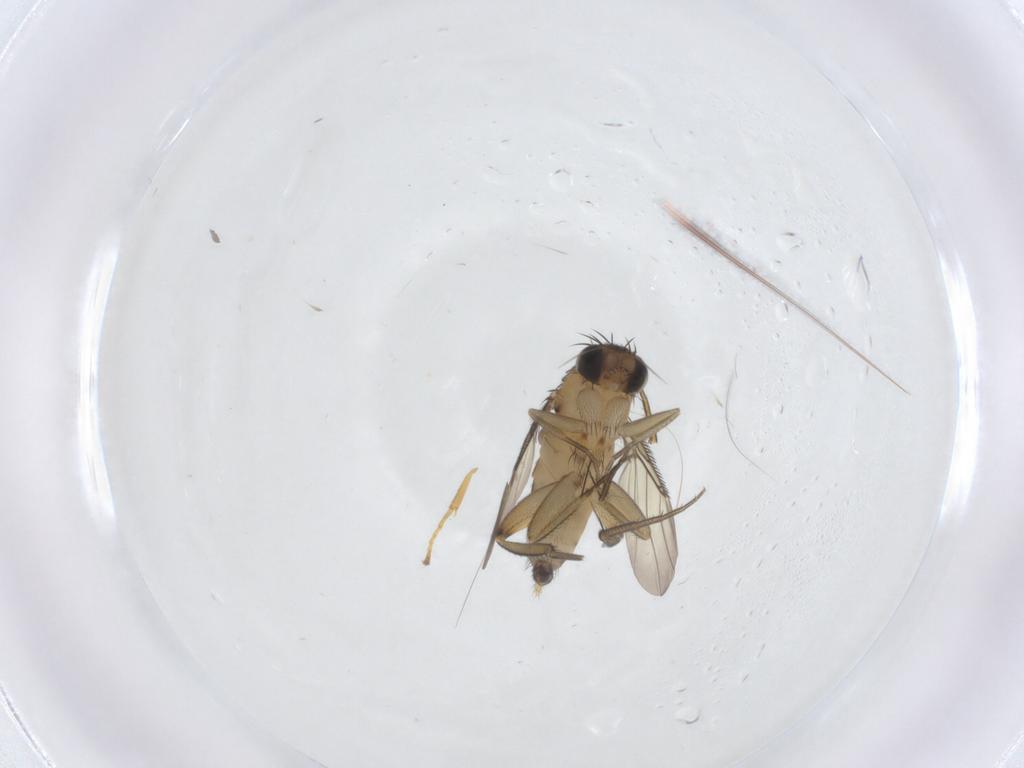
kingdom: Animalia
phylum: Arthropoda
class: Insecta
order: Diptera
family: Phoridae
